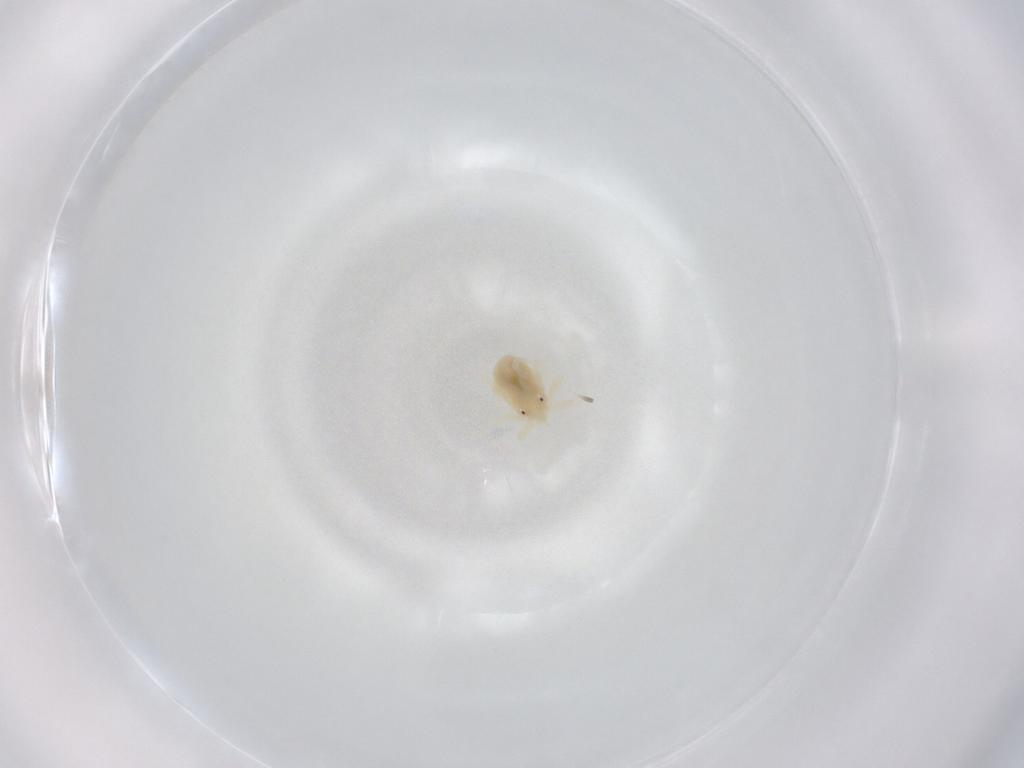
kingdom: Animalia
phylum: Arthropoda
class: Arachnida
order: Trombidiformes
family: Anystidae
